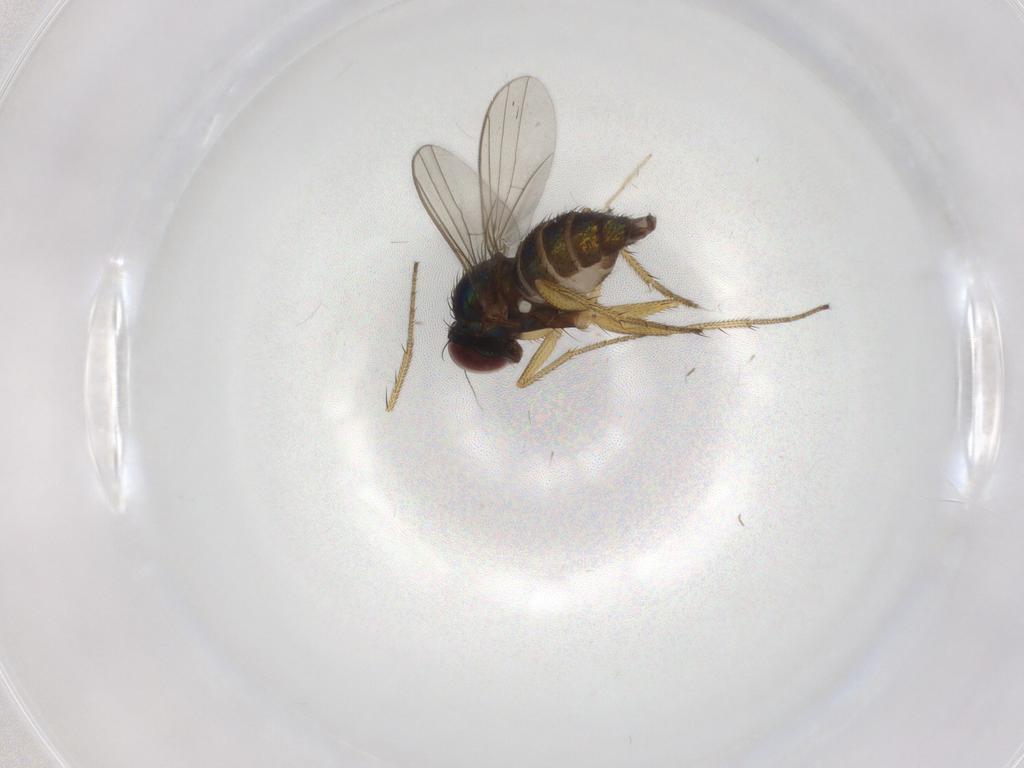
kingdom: Animalia
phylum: Arthropoda
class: Insecta
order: Diptera
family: Dolichopodidae
